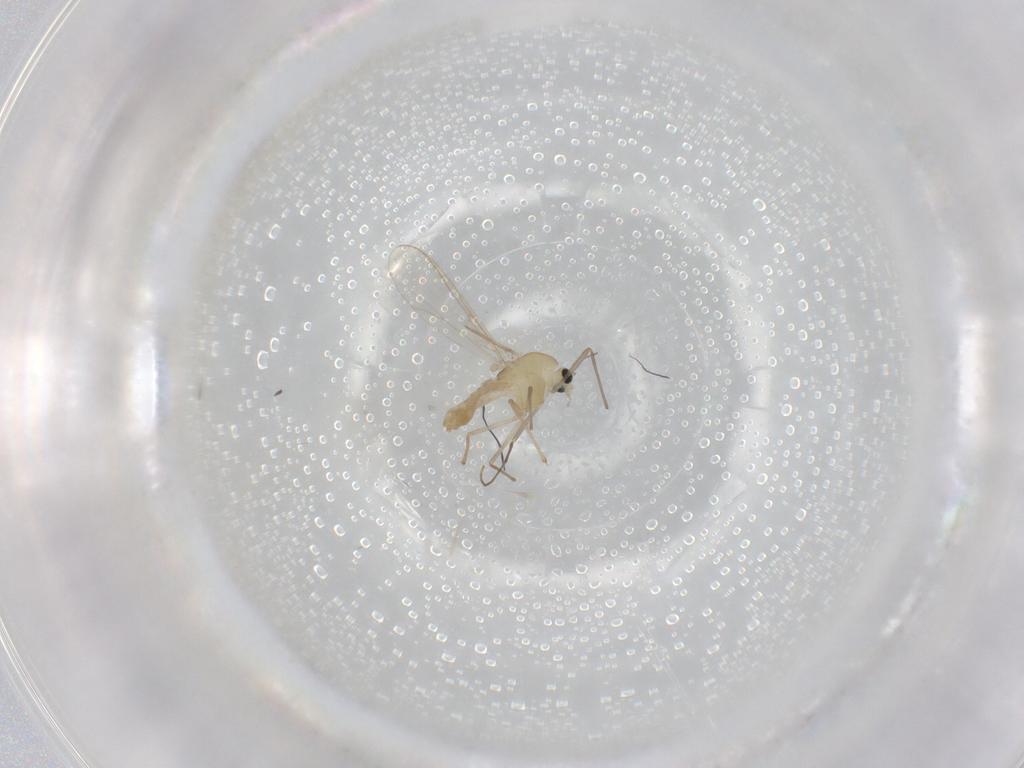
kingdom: Animalia
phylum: Arthropoda
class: Insecta
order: Diptera
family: Chironomidae
